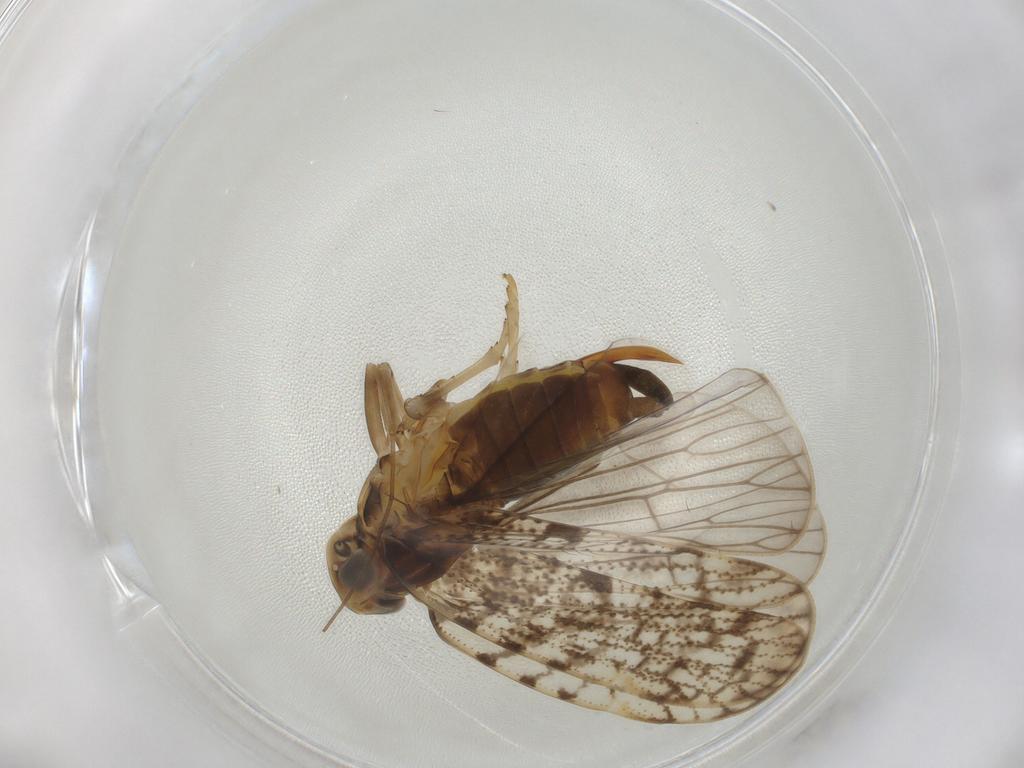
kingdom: Animalia
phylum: Arthropoda
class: Insecta
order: Diptera
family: Cecidomyiidae
